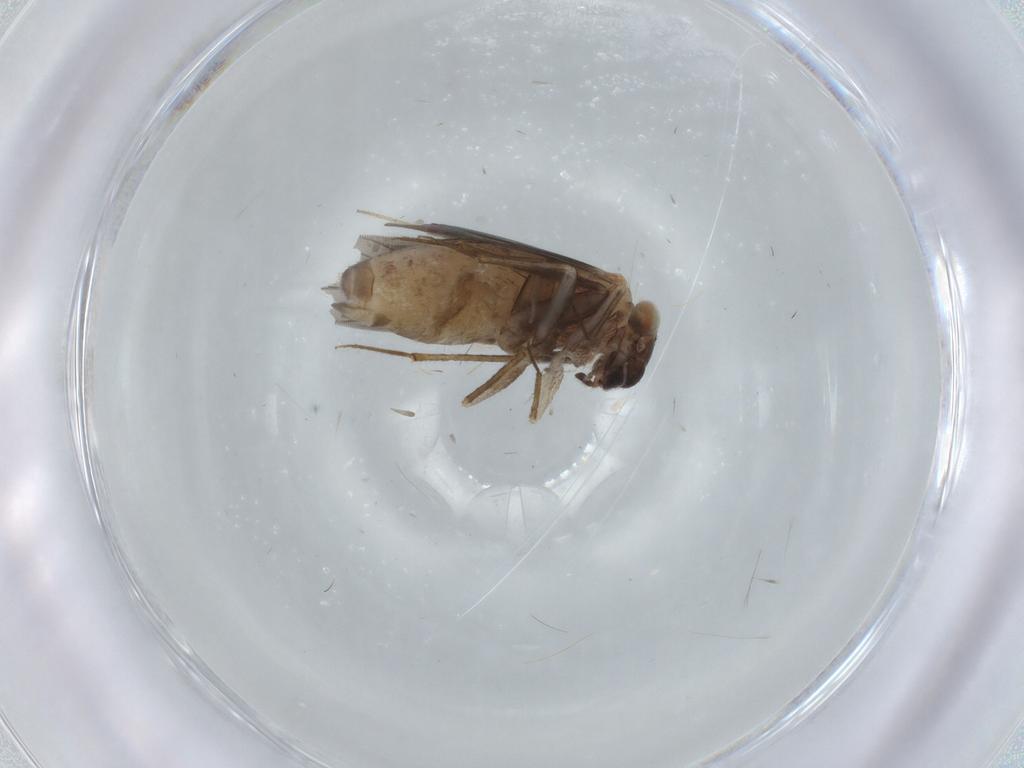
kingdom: Animalia
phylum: Arthropoda
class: Insecta
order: Psocodea
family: Lepidopsocidae
